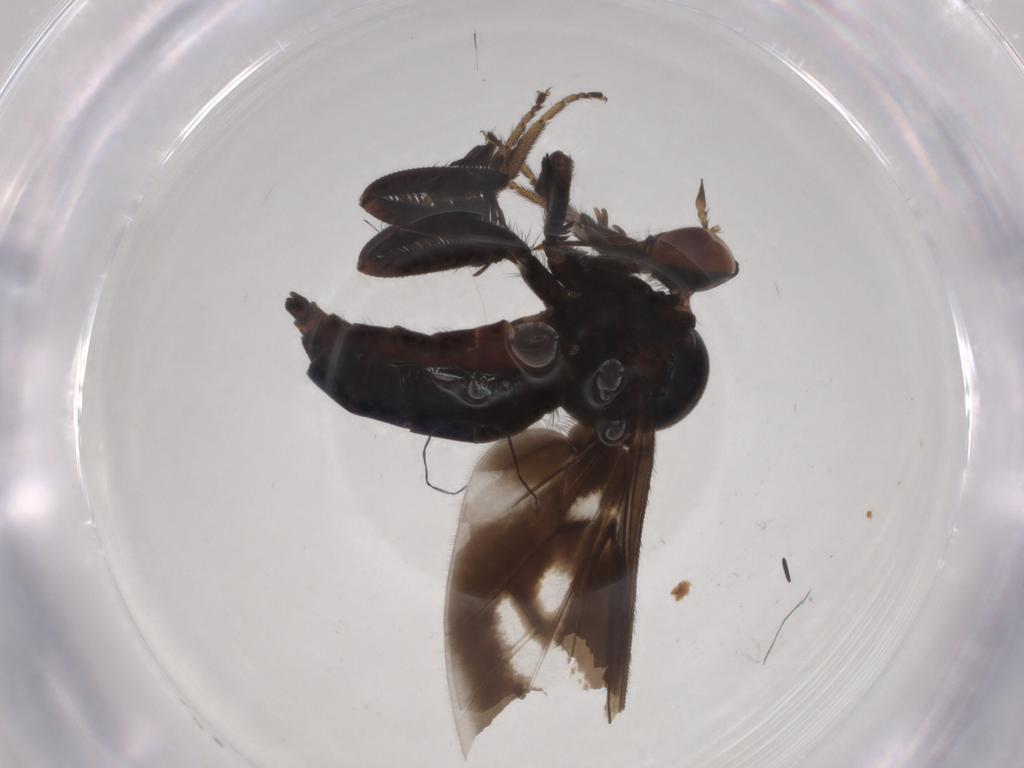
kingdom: Animalia
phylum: Arthropoda
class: Insecta
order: Diptera
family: Empididae
